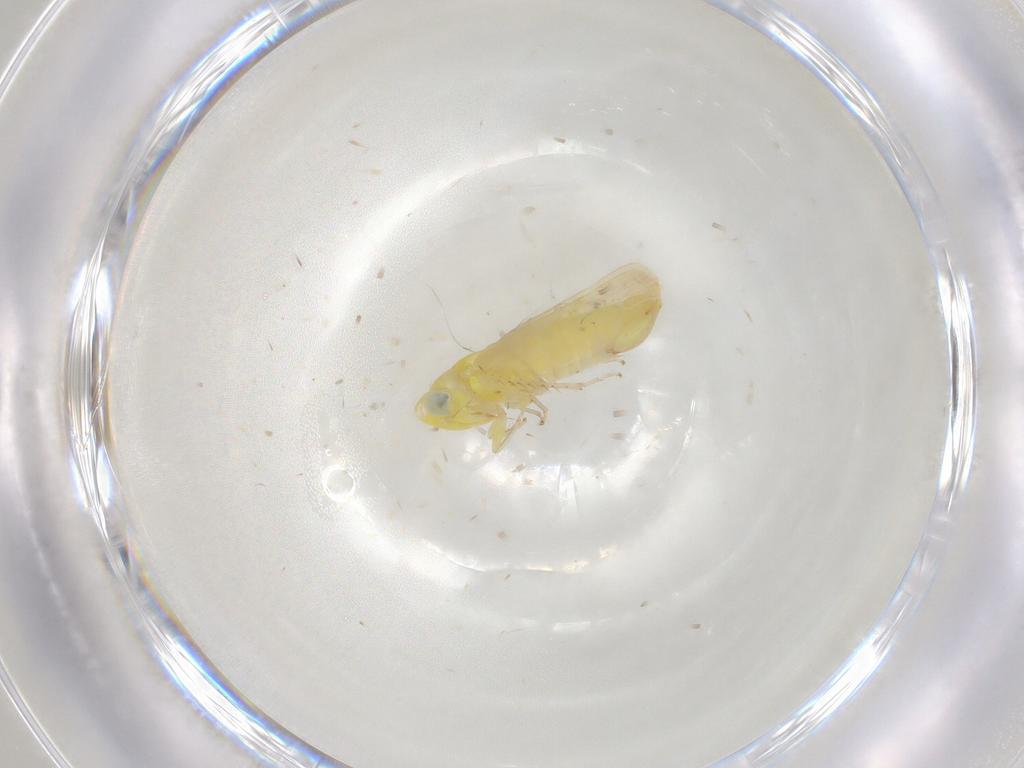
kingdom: Animalia
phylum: Arthropoda
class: Insecta
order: Hemiptera
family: Cicadellidae
